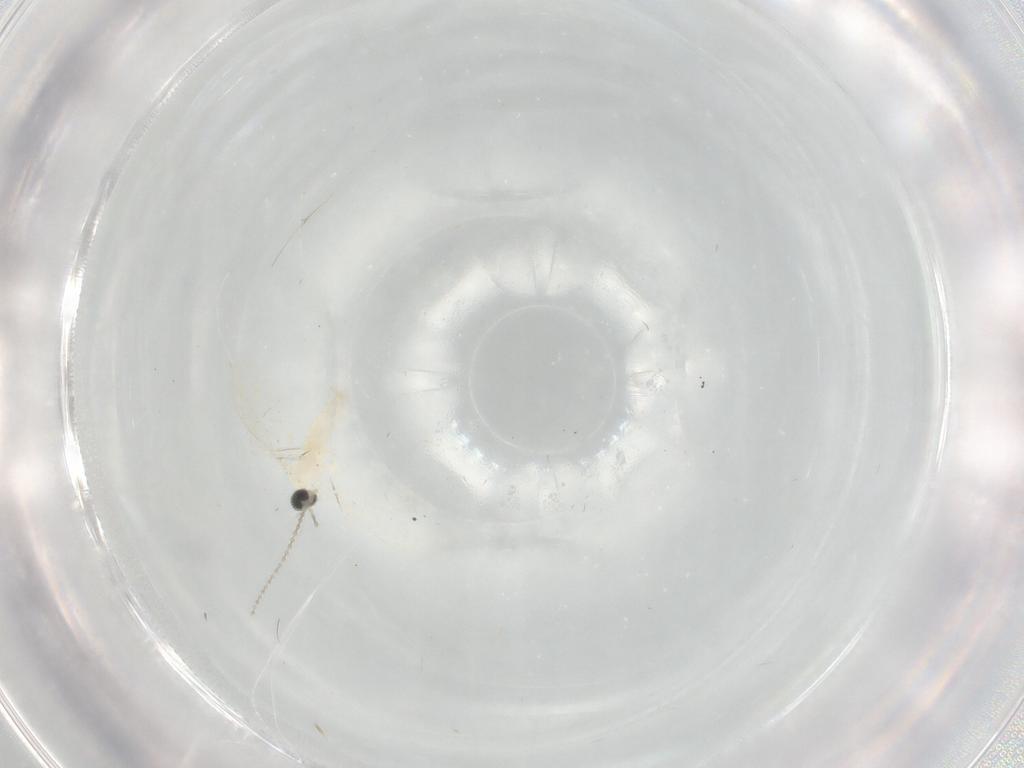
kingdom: Animalia
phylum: Arthropoda
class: Insecta
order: Diptera
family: Cecidomyiidae
